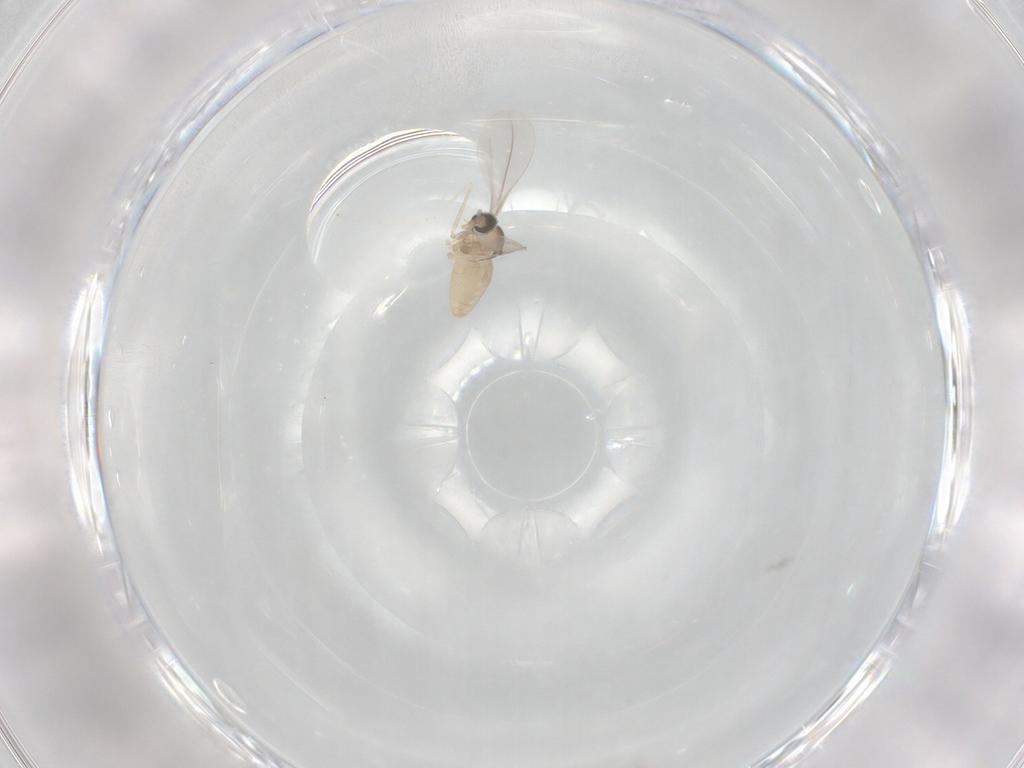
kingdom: Animalia
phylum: Arthropoda
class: Insecta
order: Diptera
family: Cecidomyiidae
